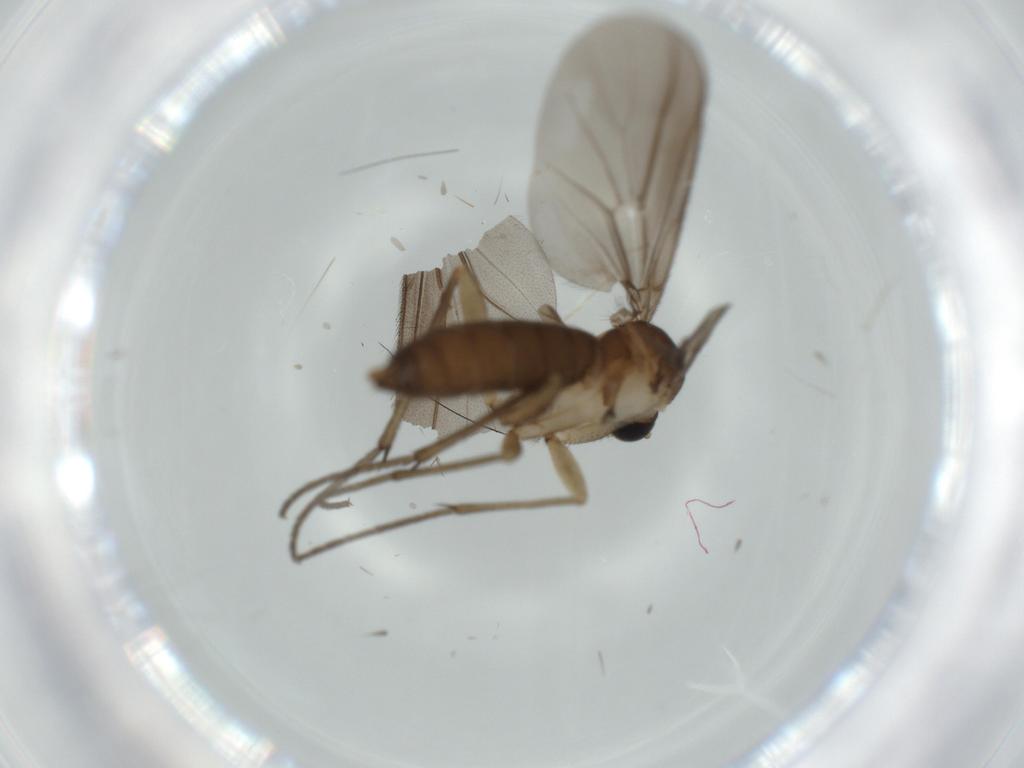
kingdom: Animalia
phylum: Arthropoda
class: Insecta
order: Diptera
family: Diadocidiidae
